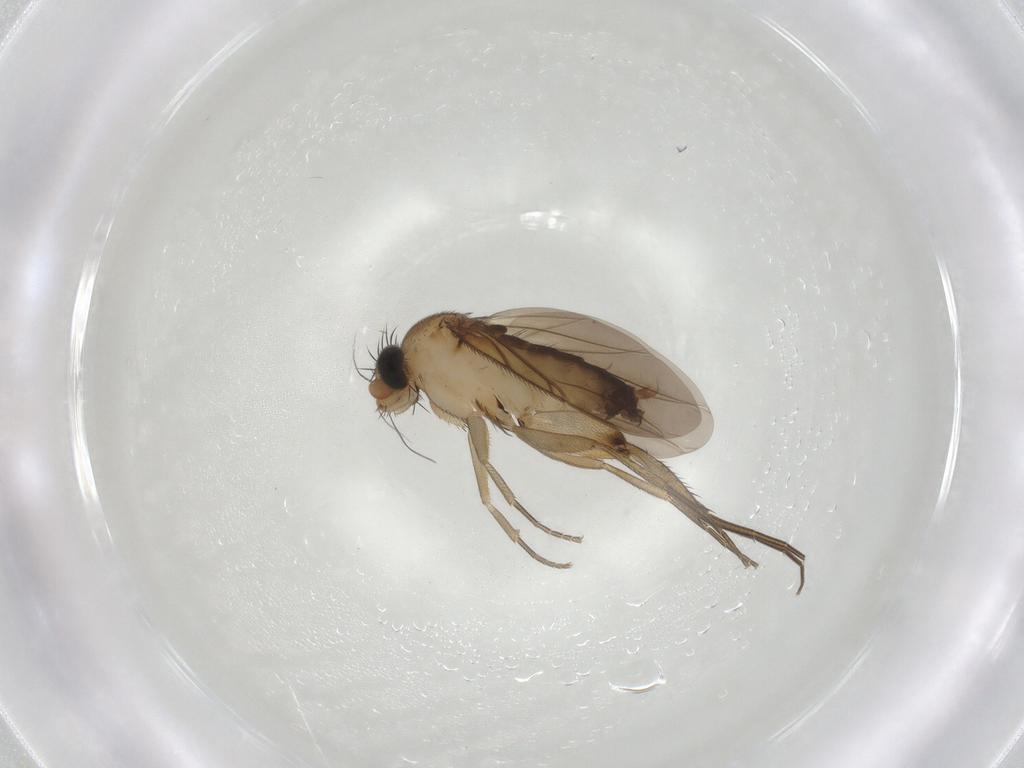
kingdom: Animalia
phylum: Arthropoda
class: Insecta
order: Diptera
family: Phoridae
